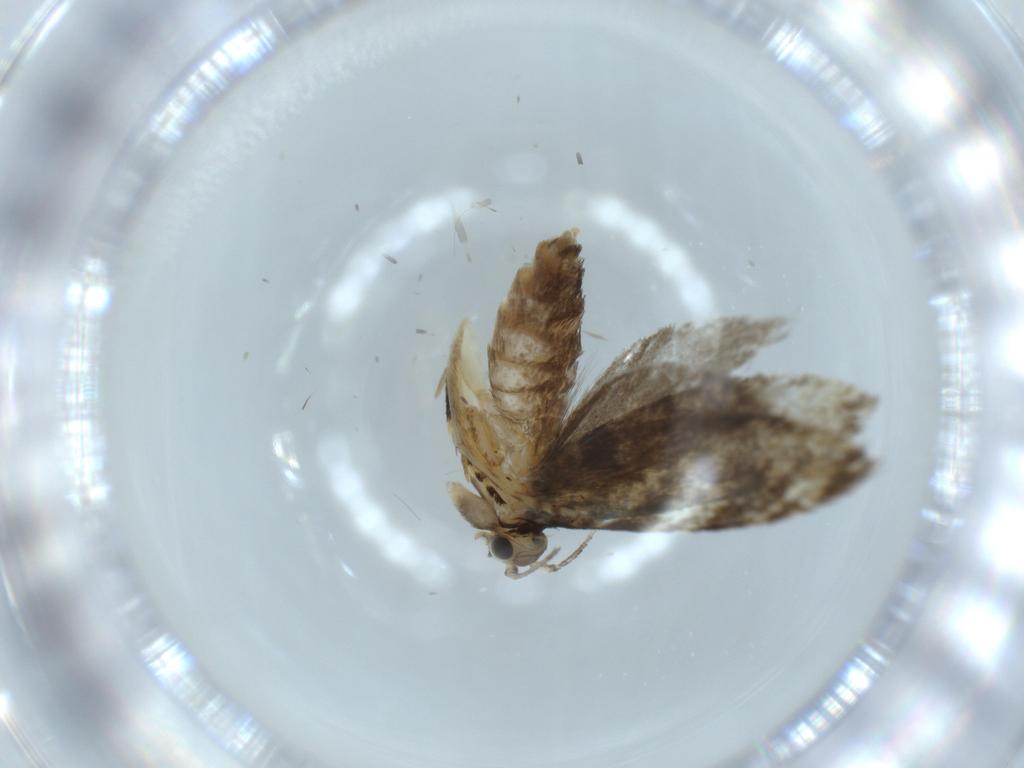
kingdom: Animalia
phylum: Arthropoda
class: Insecta
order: Lepidoptera
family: Tineidae
